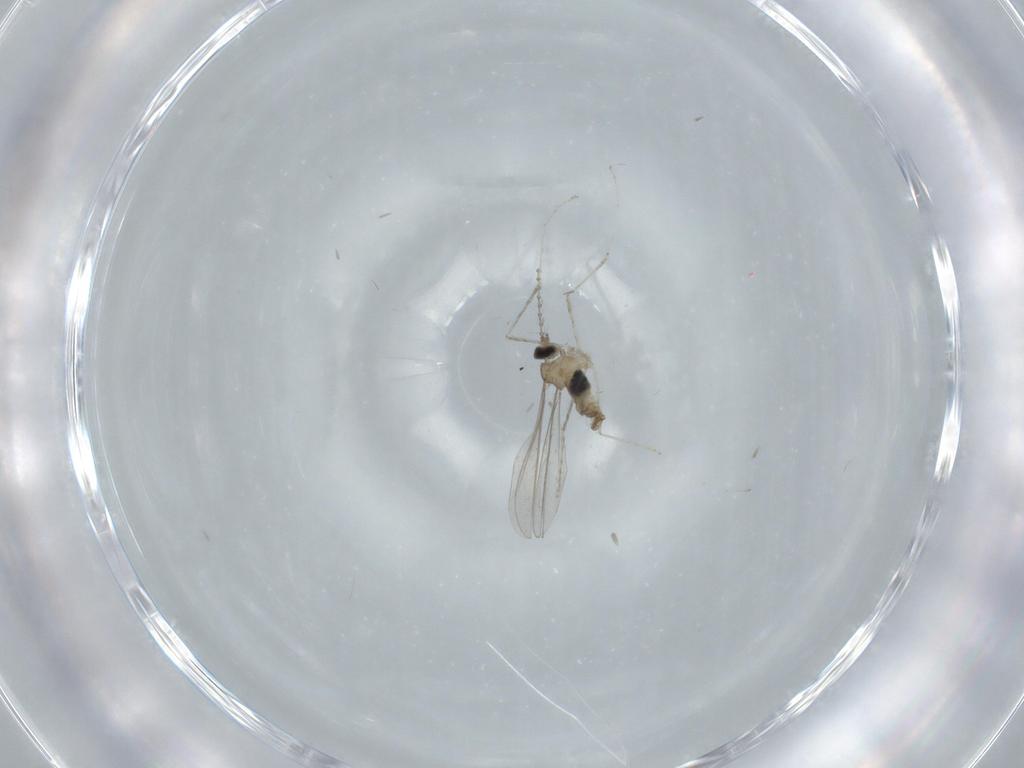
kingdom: Animalia
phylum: Arthropoda
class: Insecta
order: Diptera
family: Cecidomyiidae
